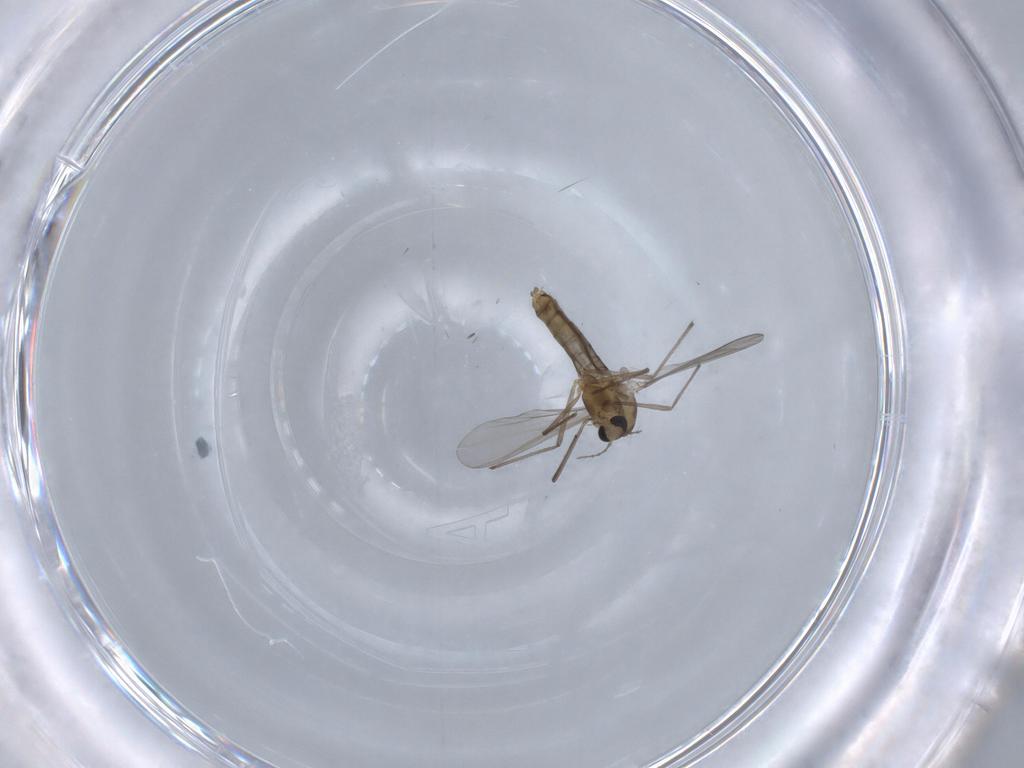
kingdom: Animalia
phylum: Arthropoda
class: Insecta
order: Diptera
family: Chironomidae
